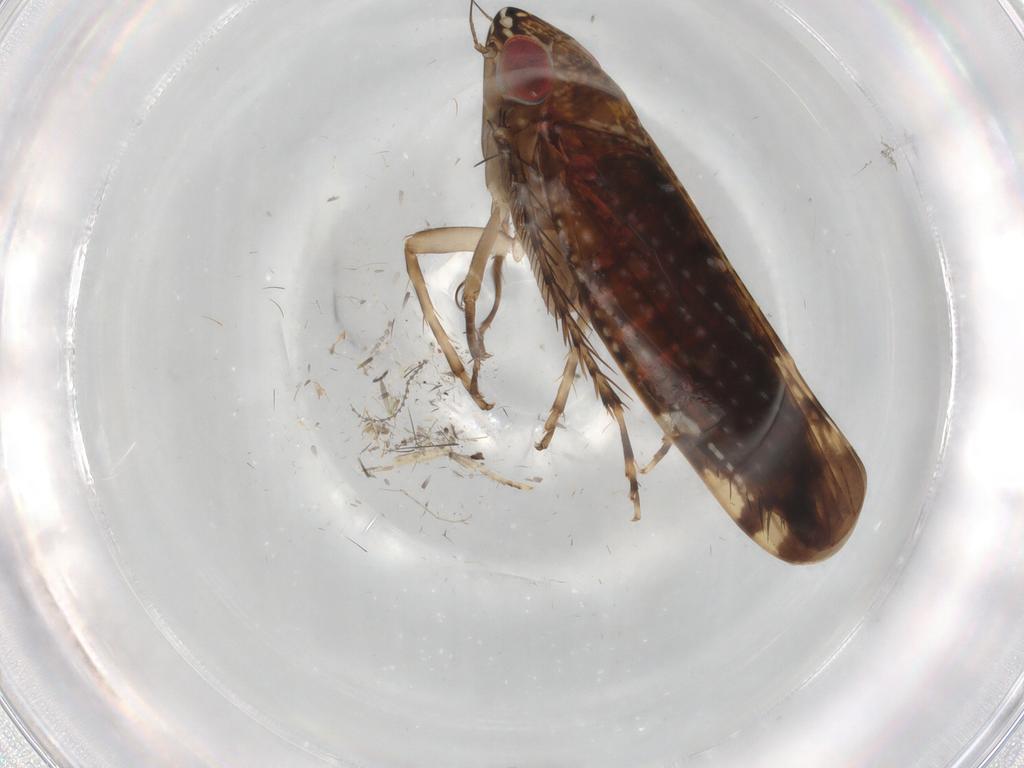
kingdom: Animalia
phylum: Arthropoda
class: Insecta
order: Hemiptera
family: Cicadellidae
